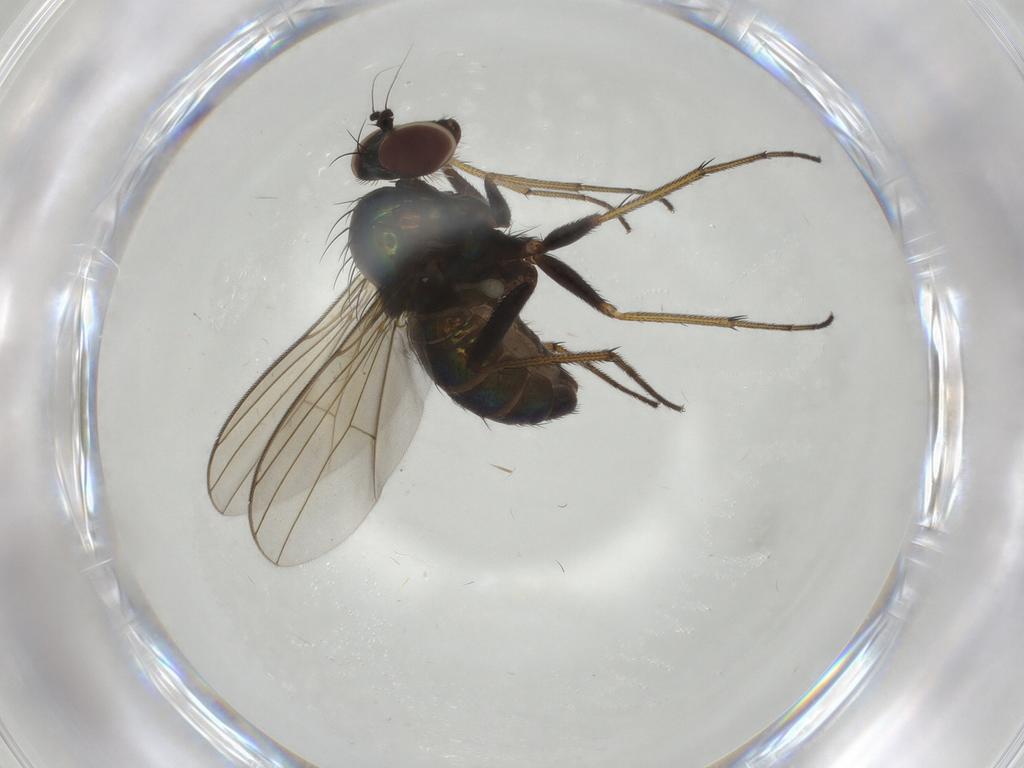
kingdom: Animalia
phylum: Arthropoda
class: Insecta
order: Diptera
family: Dolichopodidae
